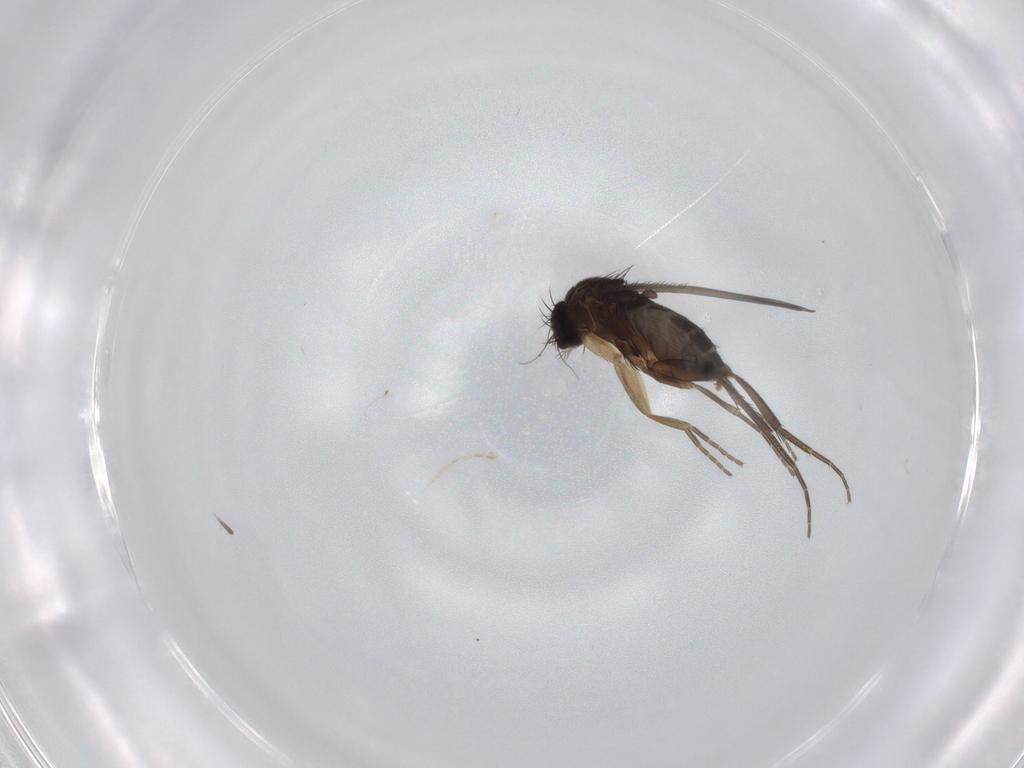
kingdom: Animalia
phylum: Arthropoda
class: Insecta
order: Diptera
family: Phoridae
